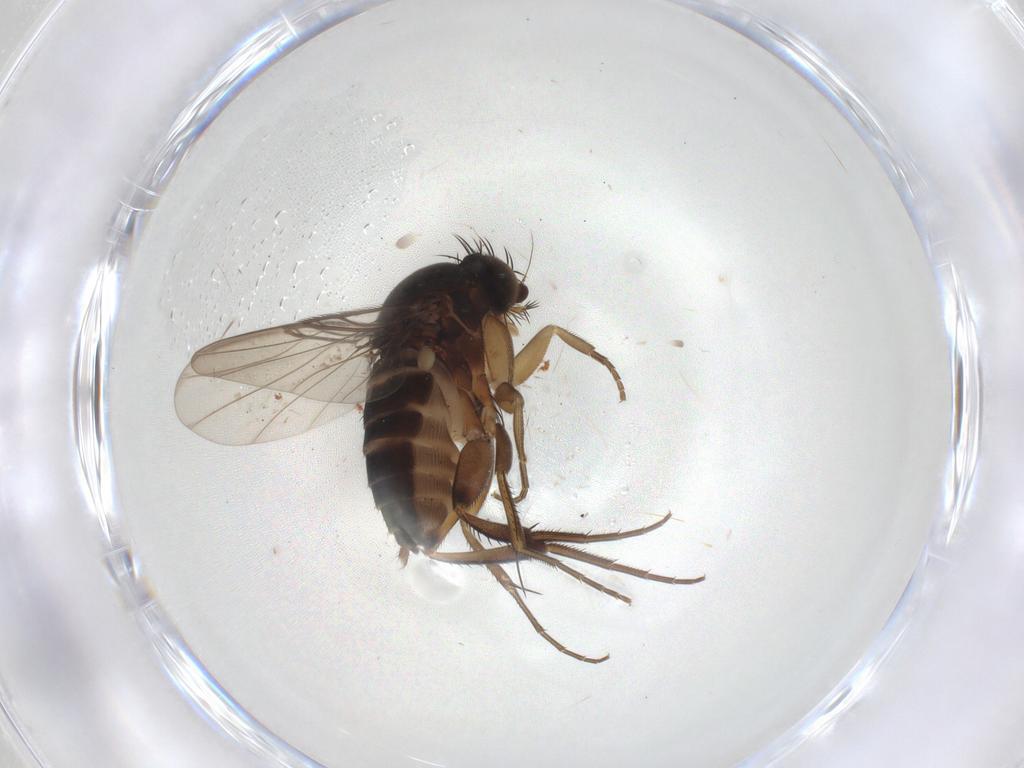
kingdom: Animalia
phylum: Arthropoda
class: Insecta
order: Diptera
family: Phoridae
